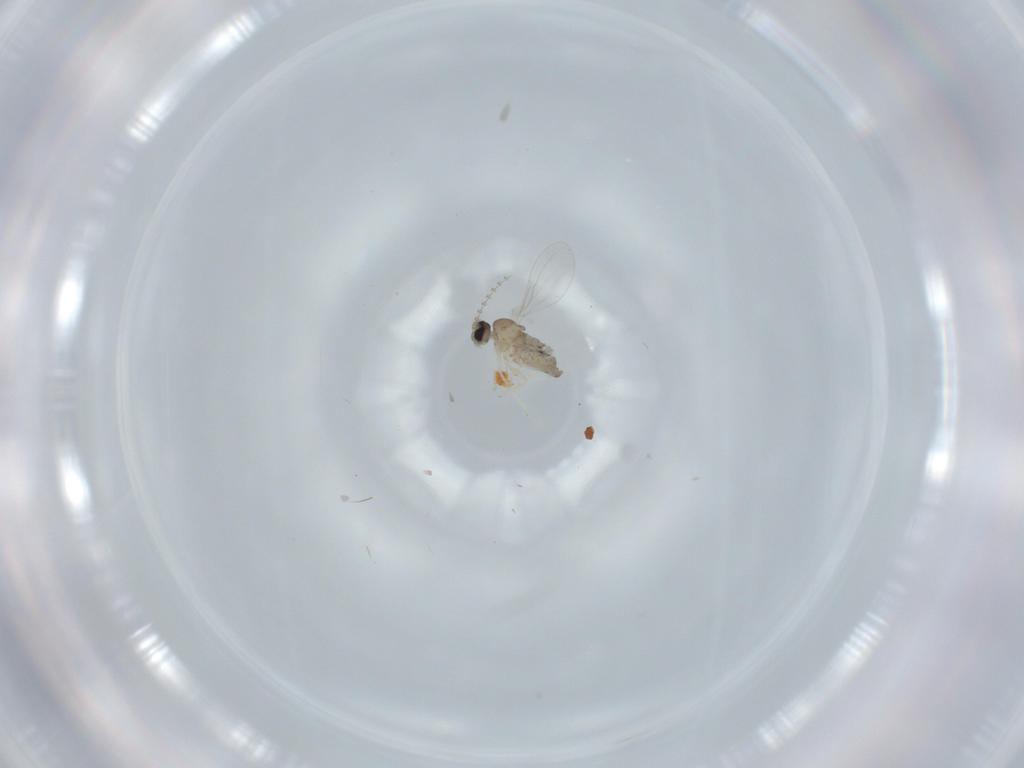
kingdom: Animalia
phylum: Arthropoda
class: Insecta
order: Diptera
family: Cecidomyiidae
